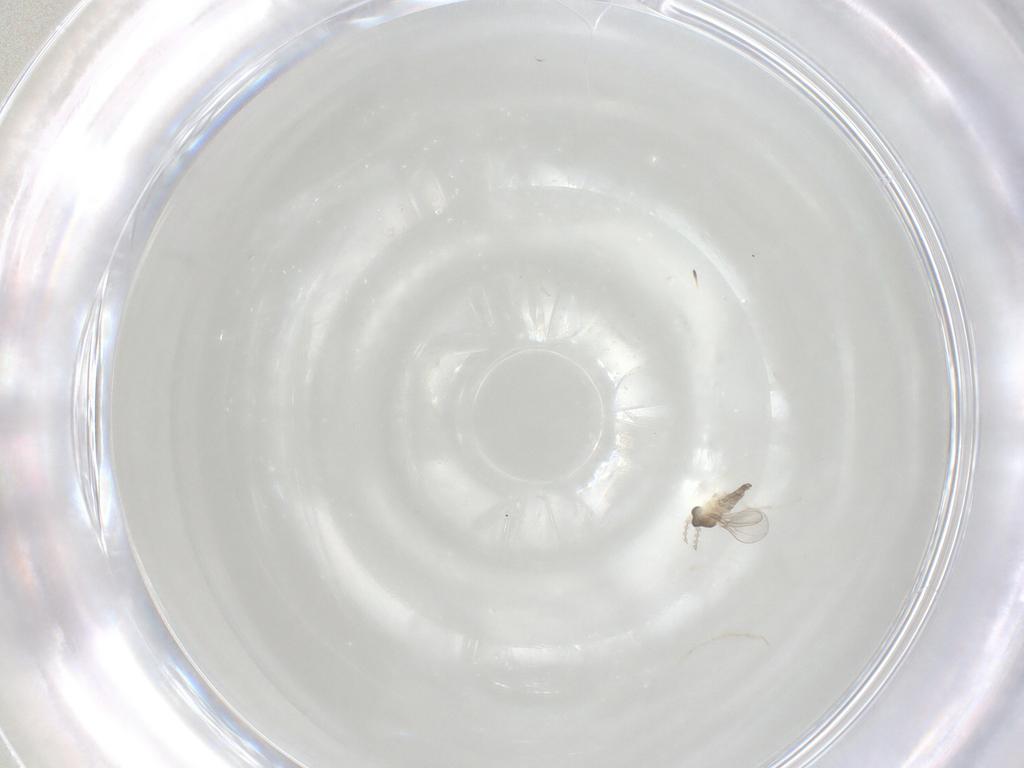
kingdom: Animalia
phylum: Arthropoda
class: Insecta
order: Diptera
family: Cecidomyiidae
